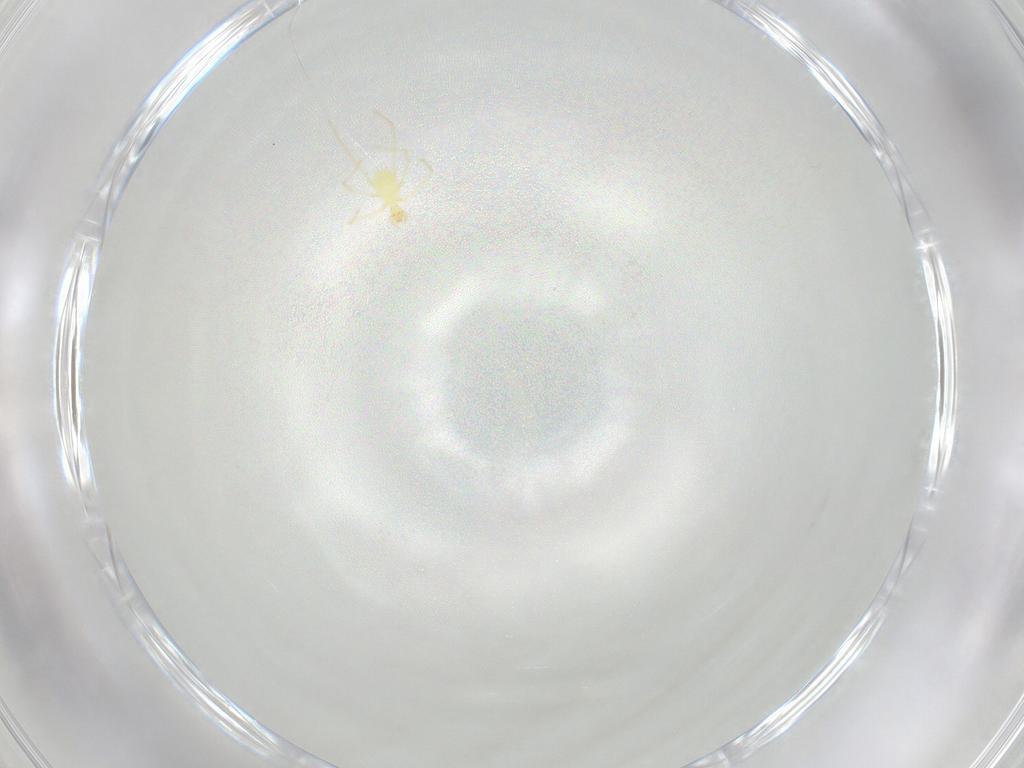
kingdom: Animalia
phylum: Arthropoda
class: Arachnida
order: Trombidiformes
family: Erythraeidae
